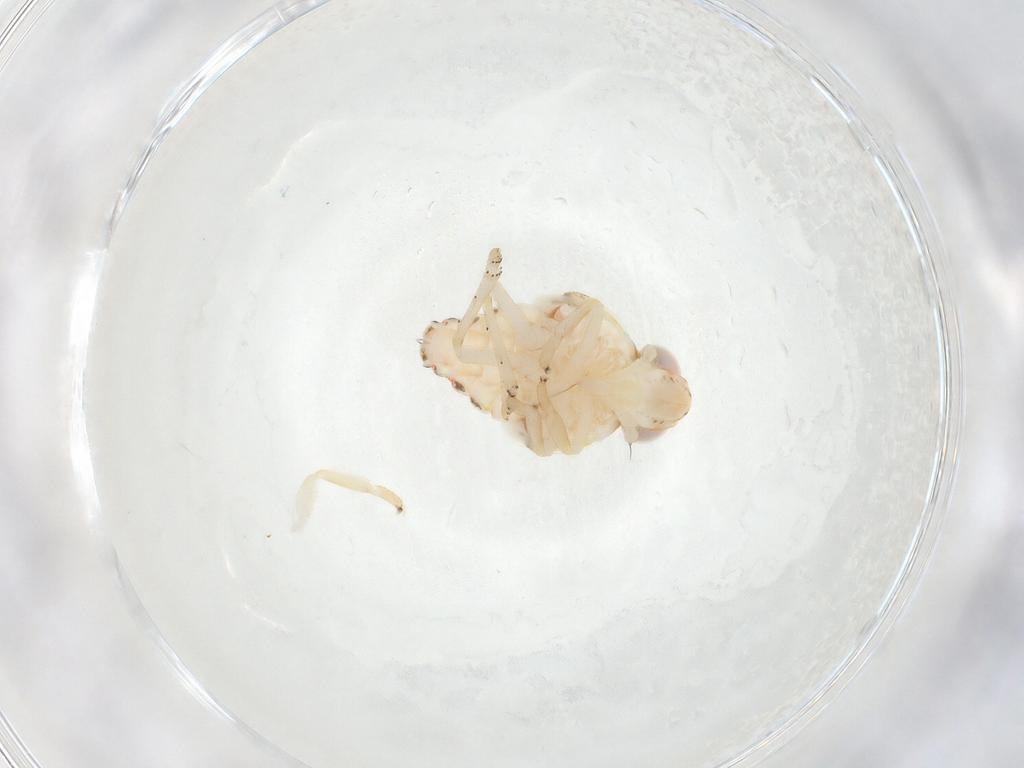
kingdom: Animalia
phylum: Arthropoda
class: Insecta
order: Hemiptera
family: Nogodinidae
